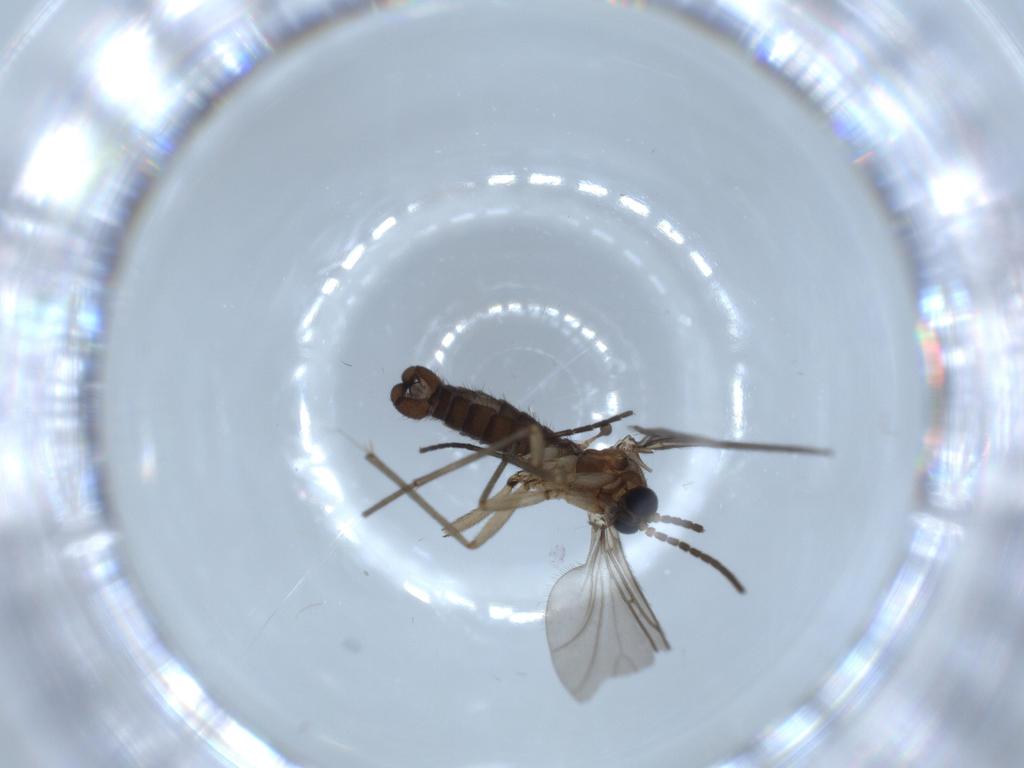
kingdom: Animalia
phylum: Arthropoda
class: Insecta
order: Diptera
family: Sciaridae
